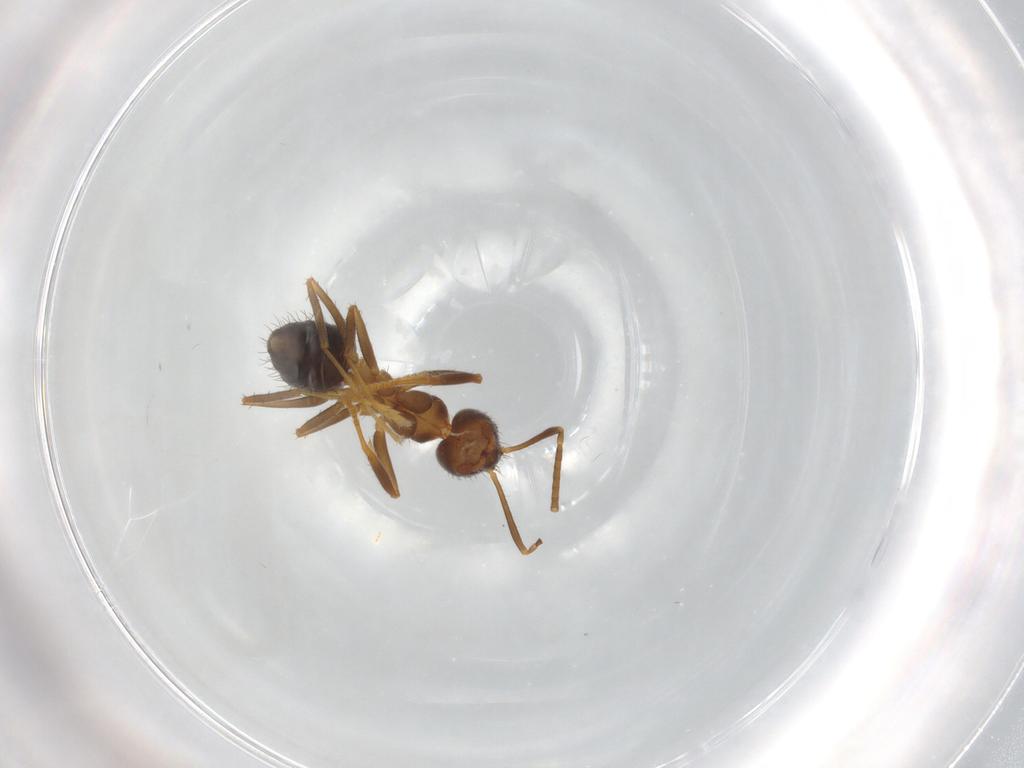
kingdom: Animalia
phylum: Arthropoda
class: Insecta
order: Hymenoptera
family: Formicidae
